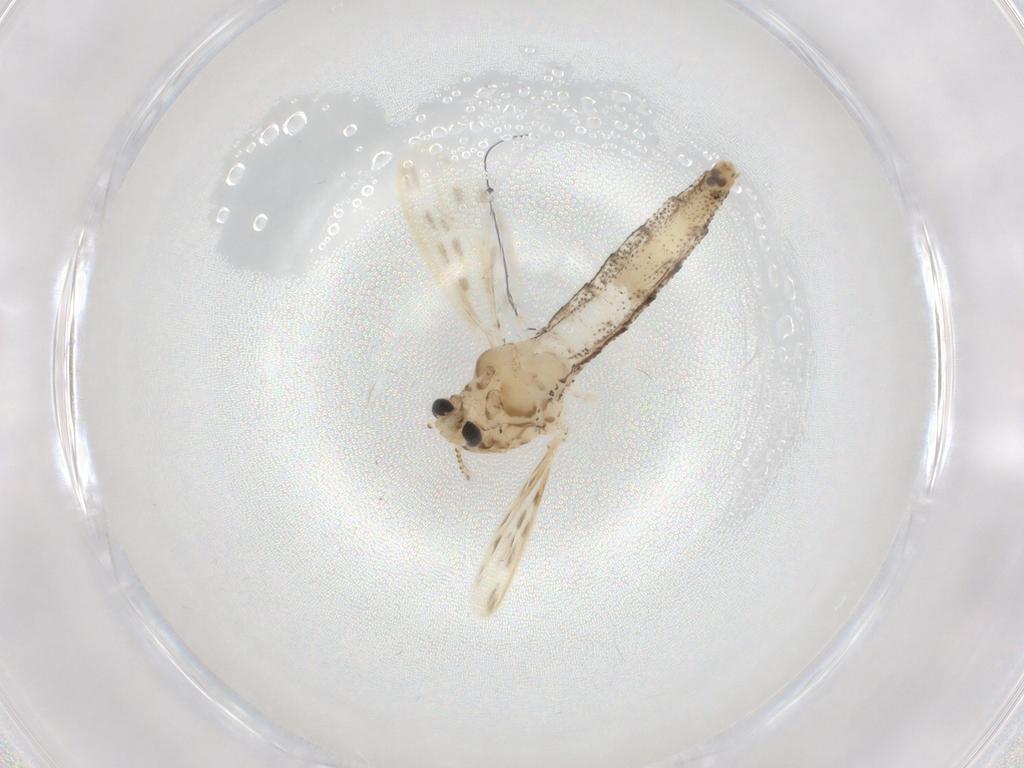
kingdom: Animalia
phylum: Arthropoda
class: Insecta
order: Diptera
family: Chaoboridae
